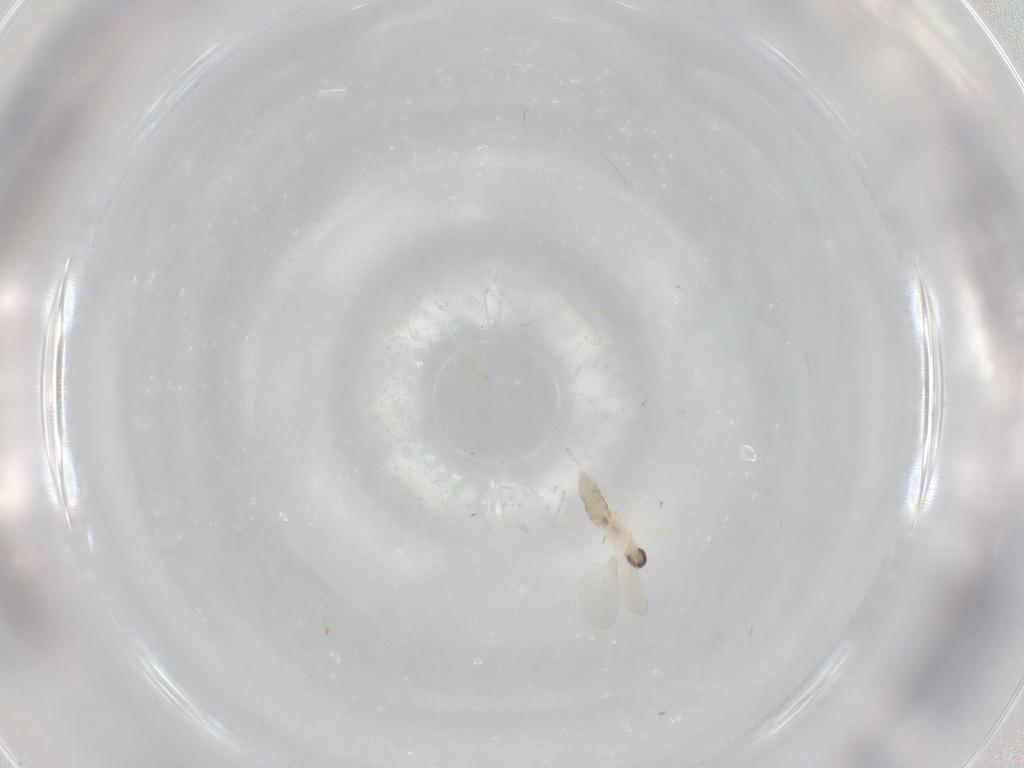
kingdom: Animalia
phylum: Arthropoda
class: Insecta
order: Diptera
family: Cecidomyiidae
